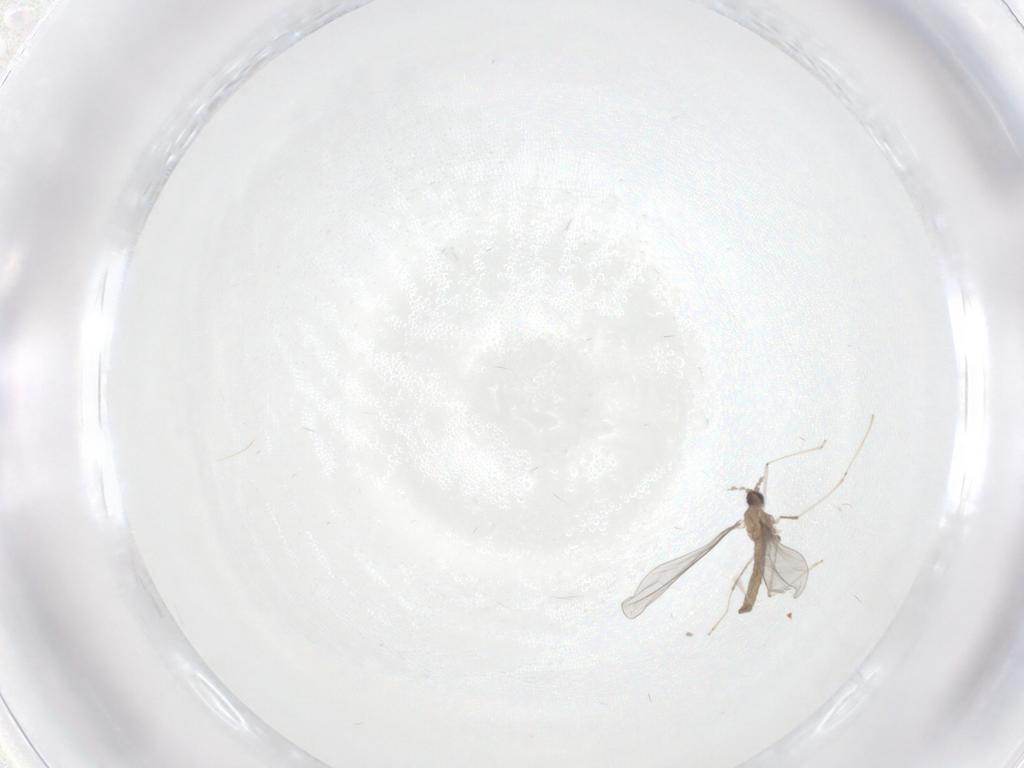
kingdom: Animalia
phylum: Arthropoda
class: Insecta
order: Diptera
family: Cecidomyiidae
